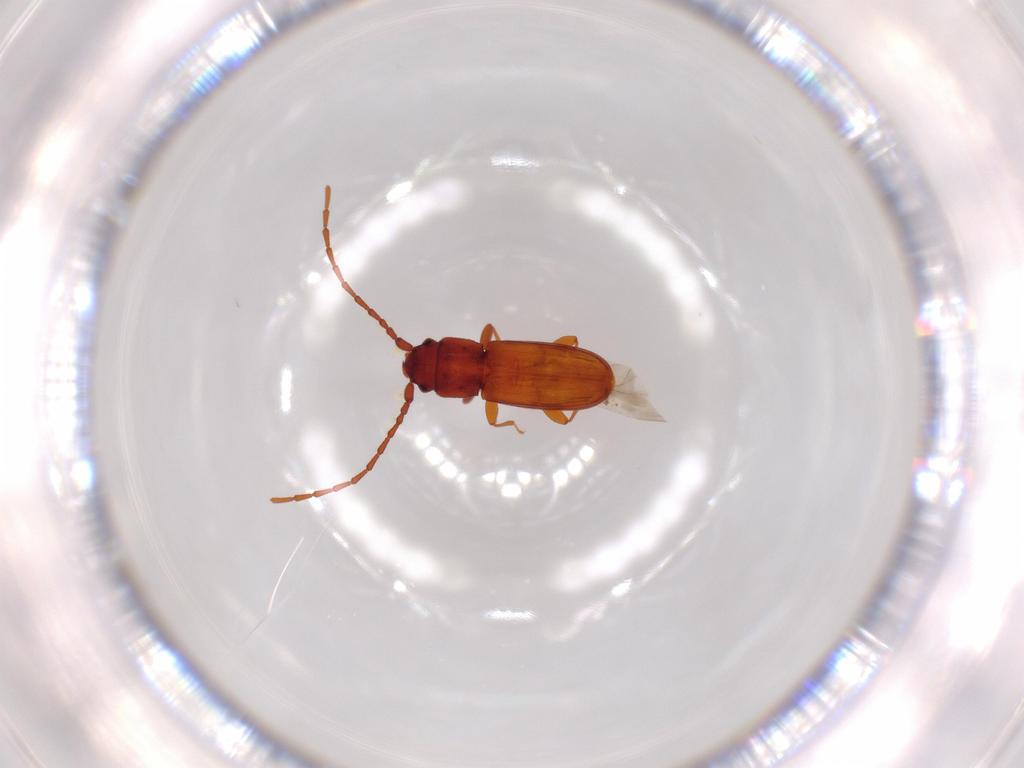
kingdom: Animalia
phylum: Arthropoda
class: Insecta
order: Coleoptera
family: Laemophloeidae
